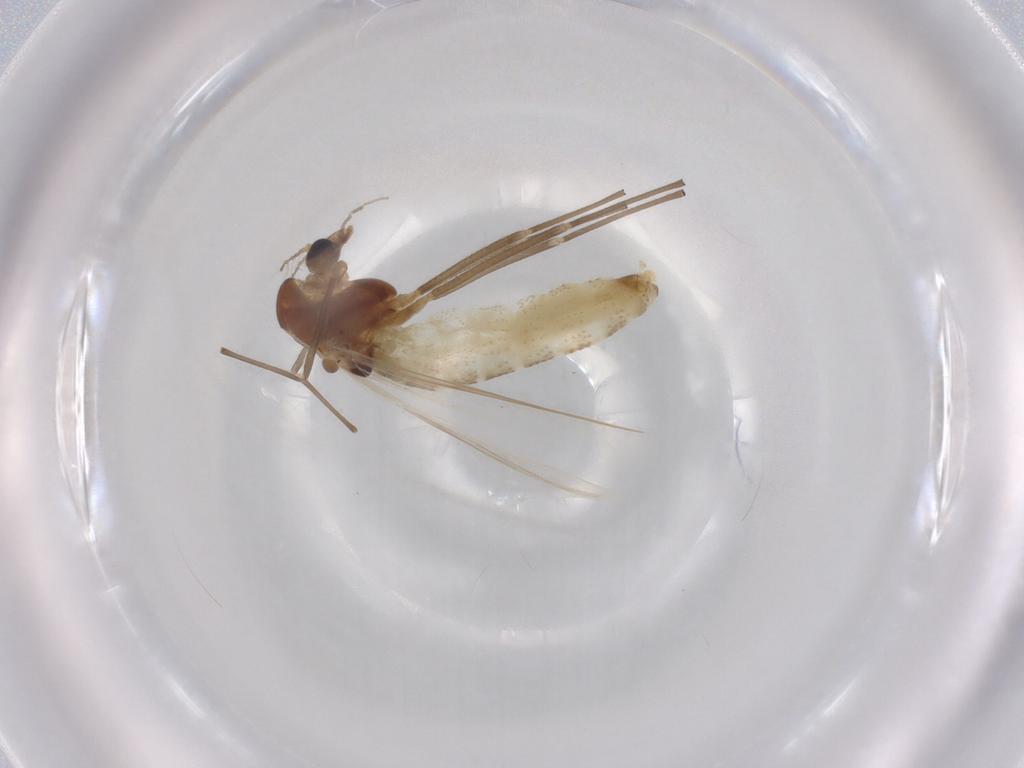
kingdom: Animalia
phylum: Arthropoda
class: Insecta
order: Diptera
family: Chironomidae
